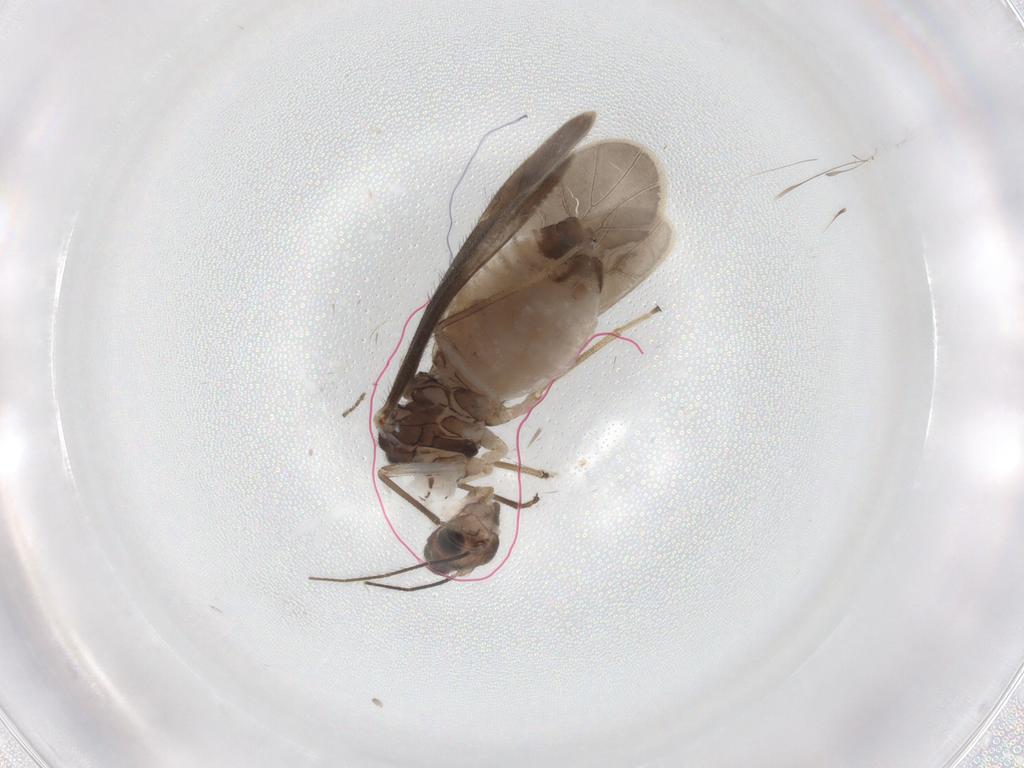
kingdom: Animalia
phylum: Arthropoda
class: Insecta
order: Psocodea
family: Caeciliusidae
